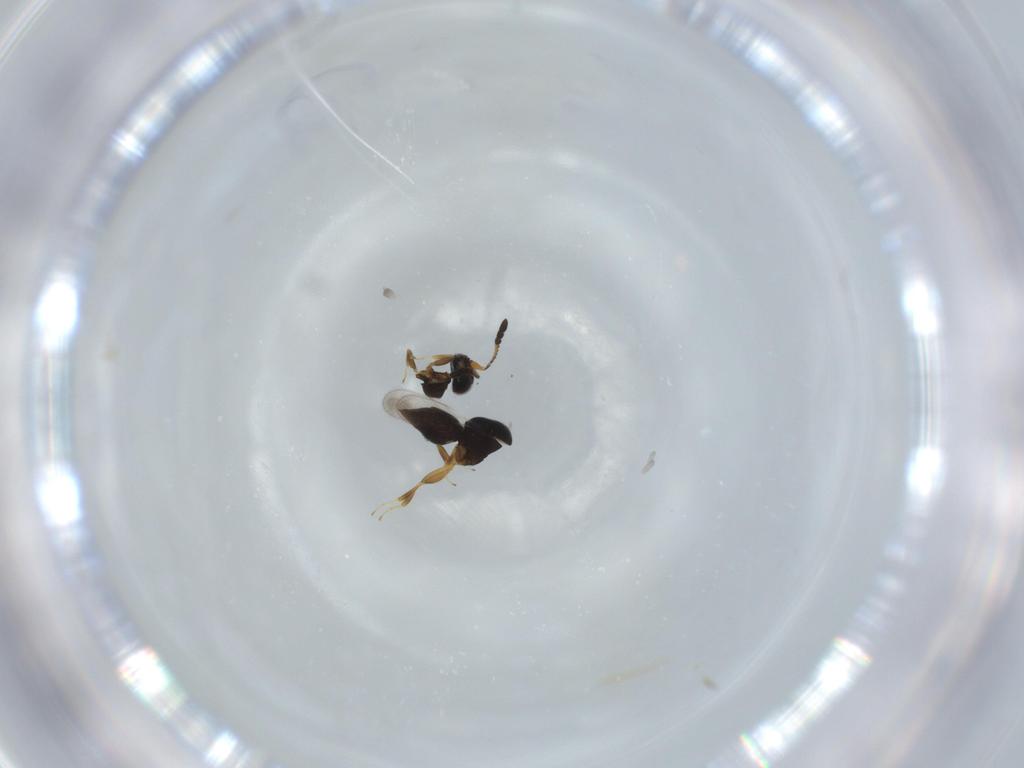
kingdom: Animalia
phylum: Arthropoda
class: Insecta
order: Hymenoptera
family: Ceraphronidae
